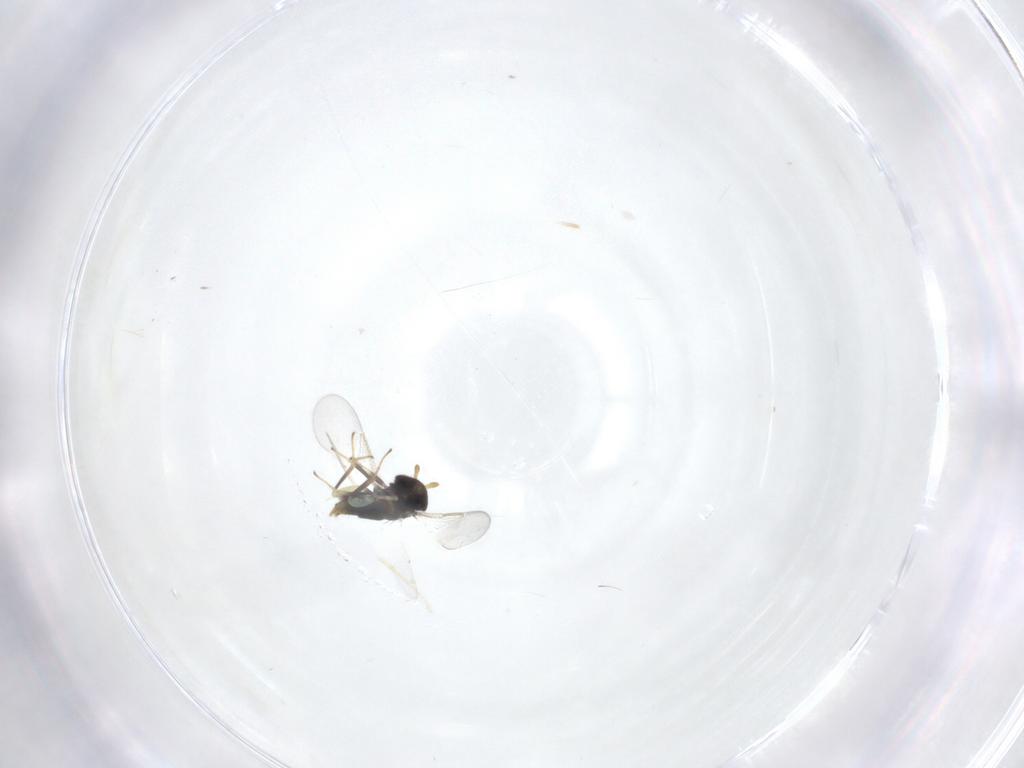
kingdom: Animalia
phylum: Arthropoda
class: Insecta
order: Hymenoptera
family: Aphelinidae
